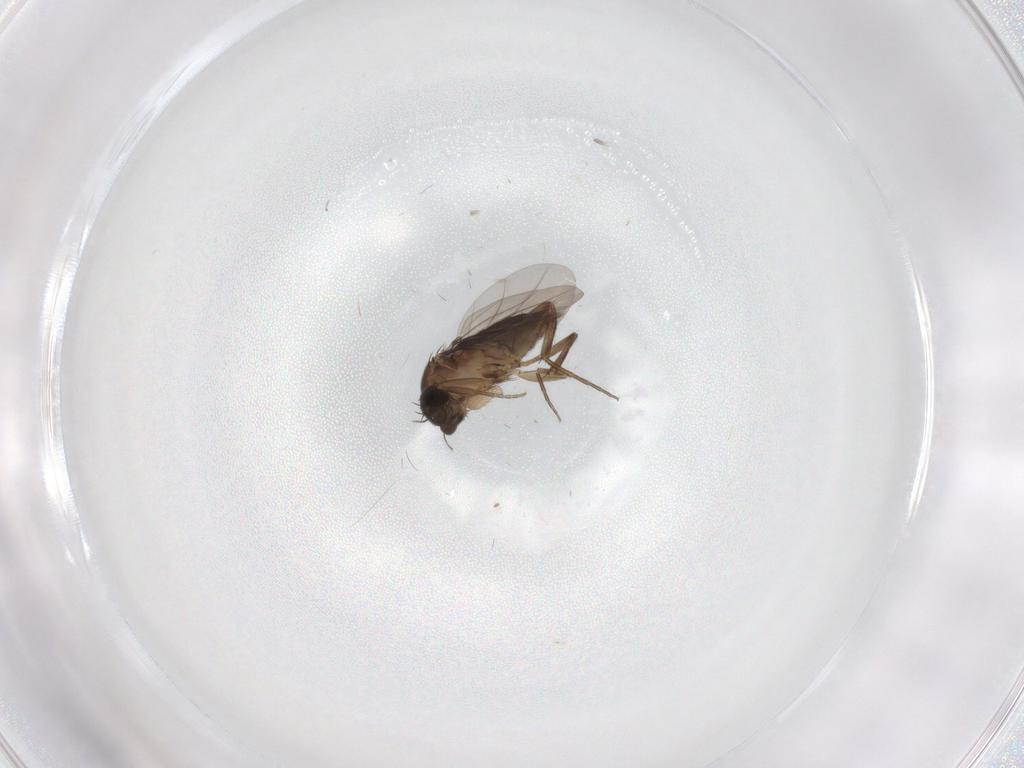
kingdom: Animalia
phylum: Arthropoda
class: Insecta
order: Diptera
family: Phoridae
